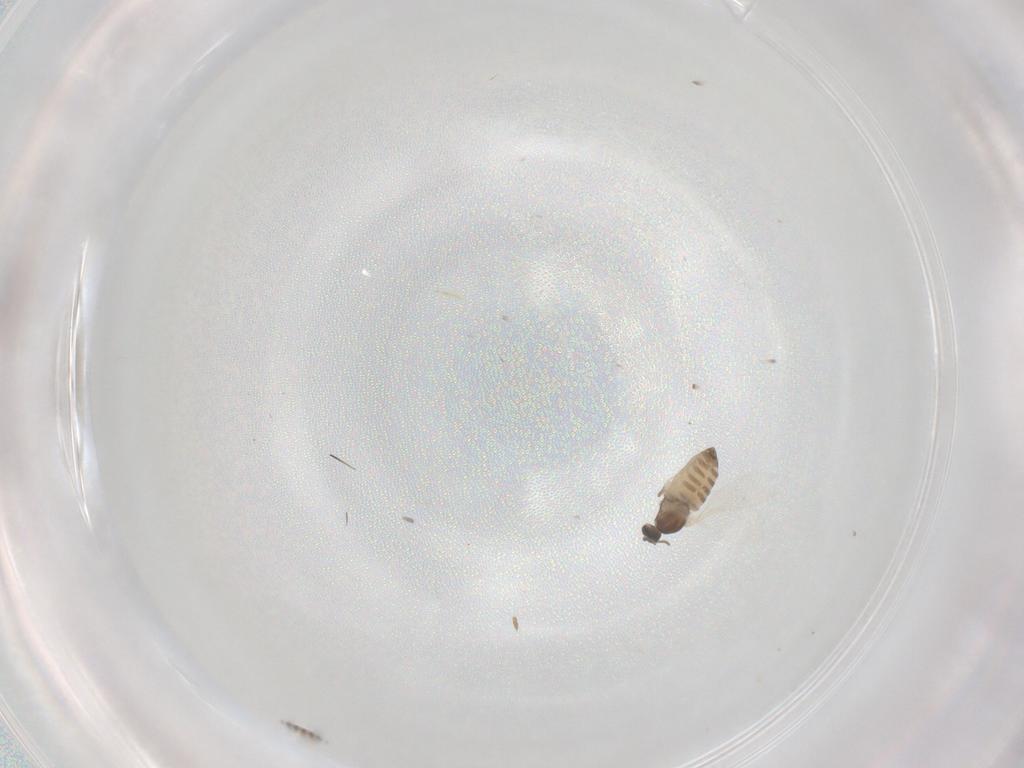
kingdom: Animalia
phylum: Arthropoda
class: Insecta
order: Diptera
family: Cecidomyiidae
